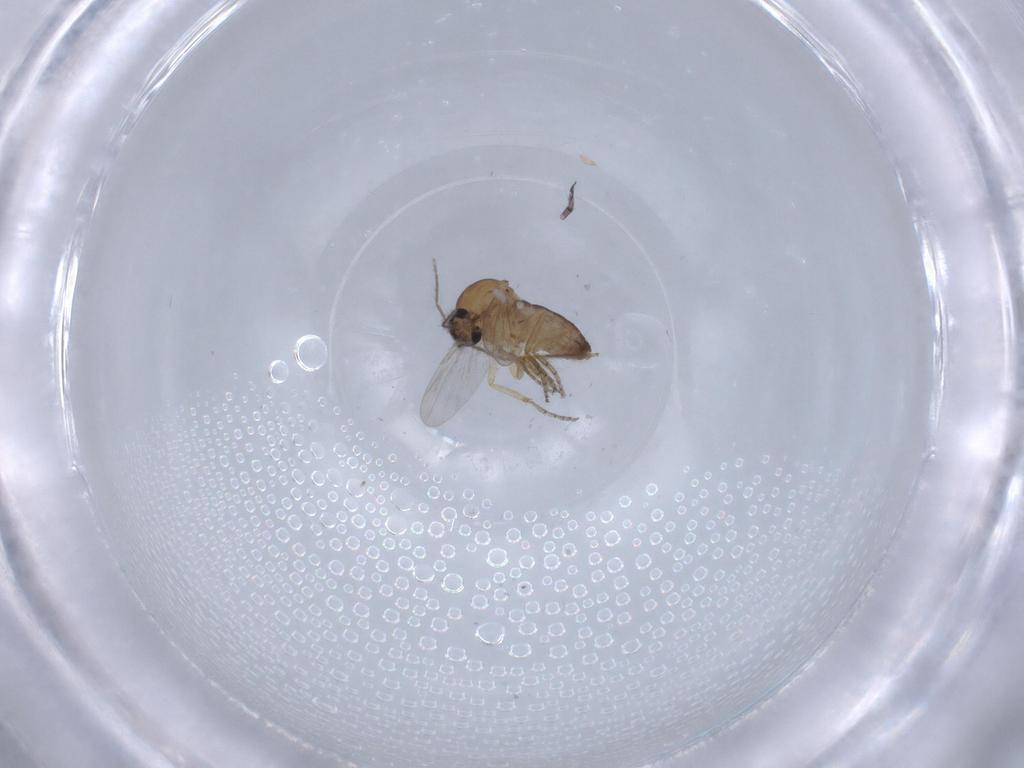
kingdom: Animalia
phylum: Arthropoda
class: Insecta
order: Diptera
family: Ceratopogonidae
